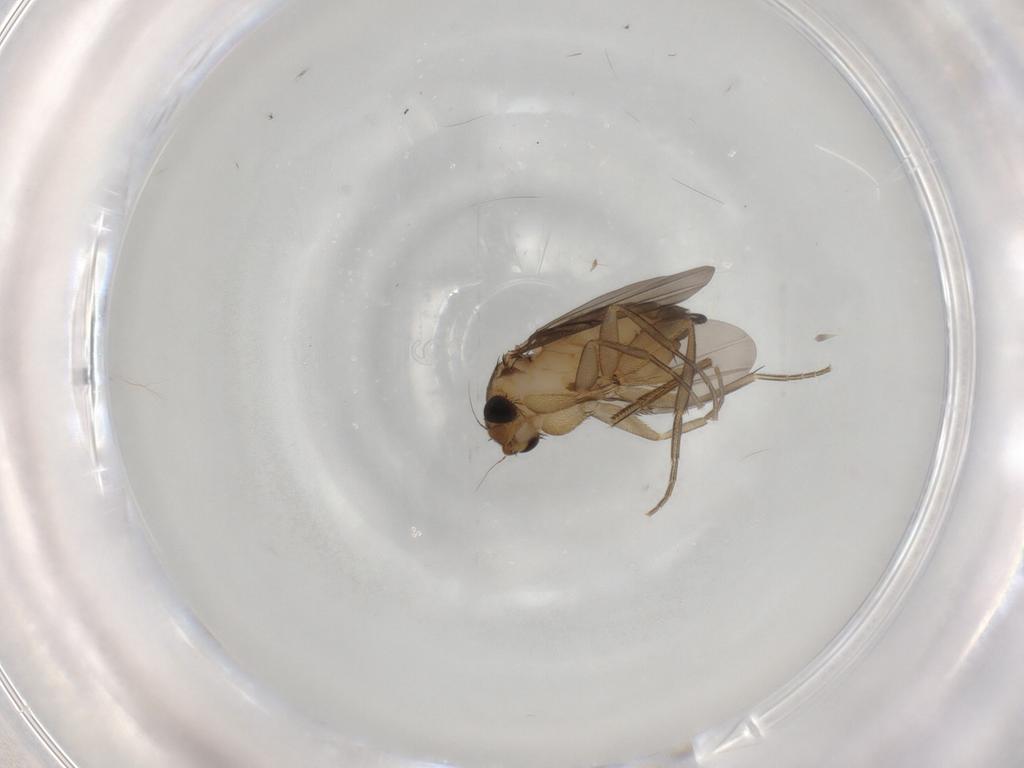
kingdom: Animalia
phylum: Arthropoda
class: Insecta
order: Diptera
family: Phoridae
